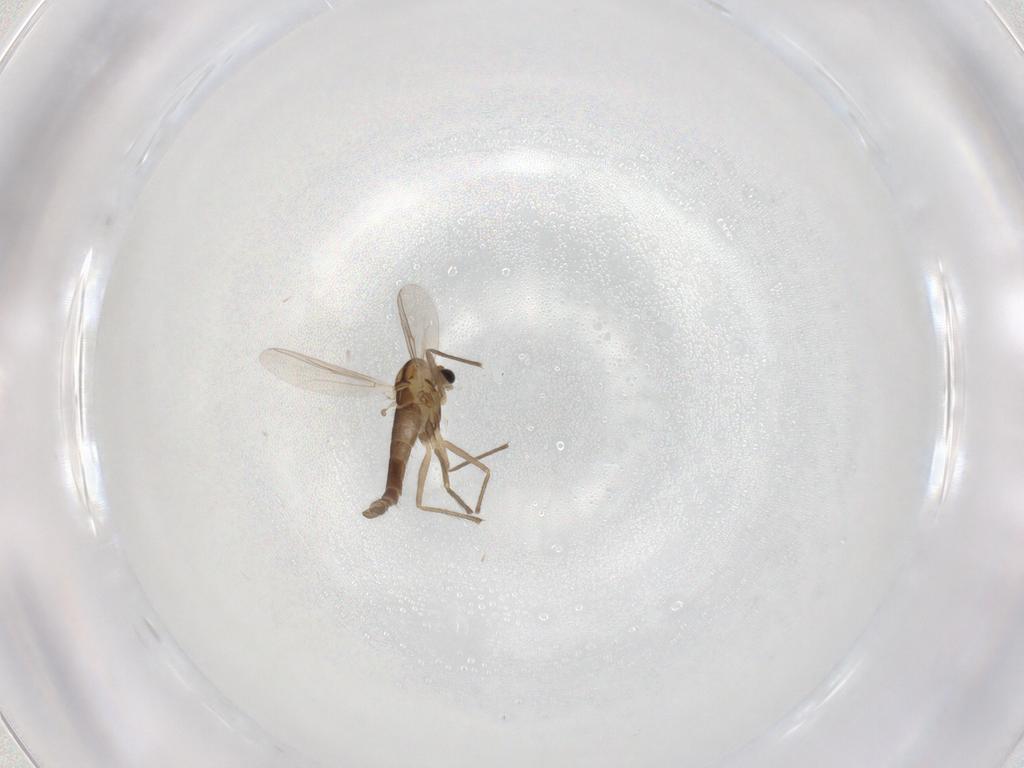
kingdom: Animalia
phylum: Arthropoda
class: Insecta
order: Diptera
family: Chironomidae
